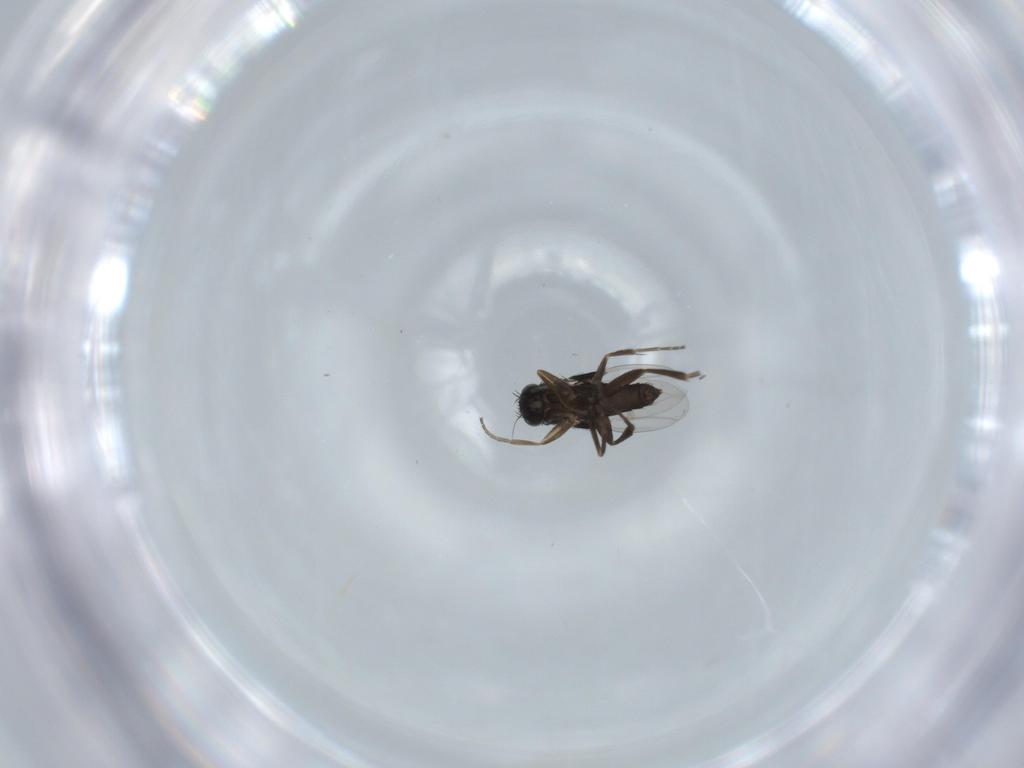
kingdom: Animalia
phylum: Arthropoda
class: Insecta
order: Diptera
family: Phoridae
